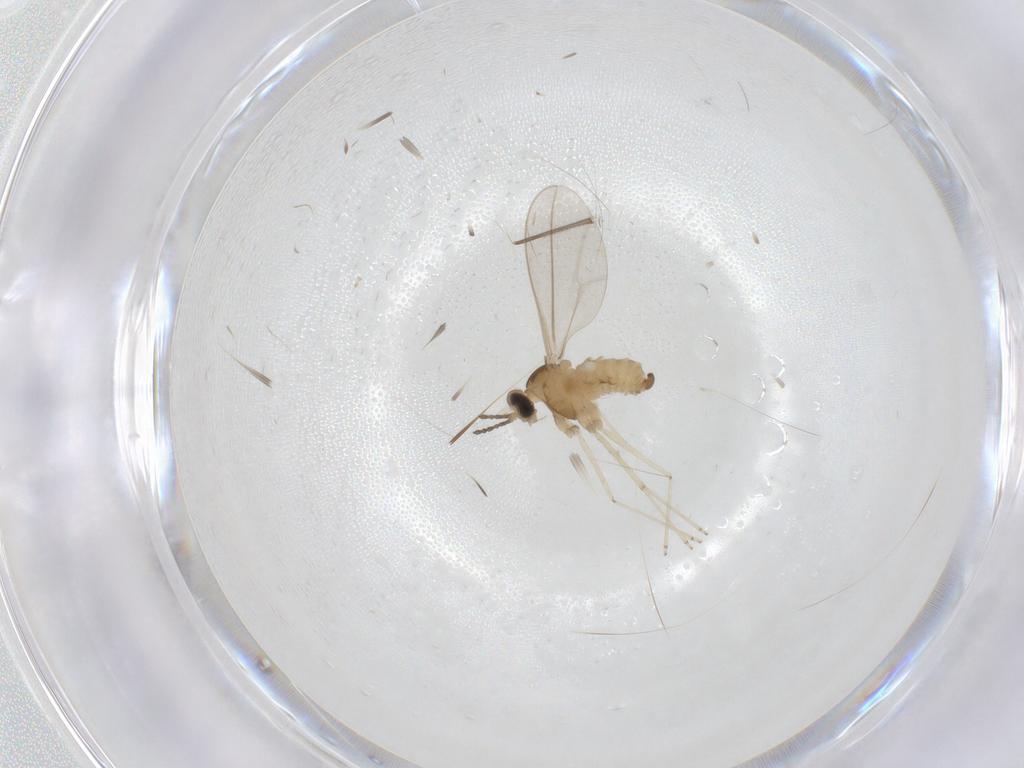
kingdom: Animalia
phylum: Arthropoda
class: Insecta
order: Diptera
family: Cecidomyiidae
